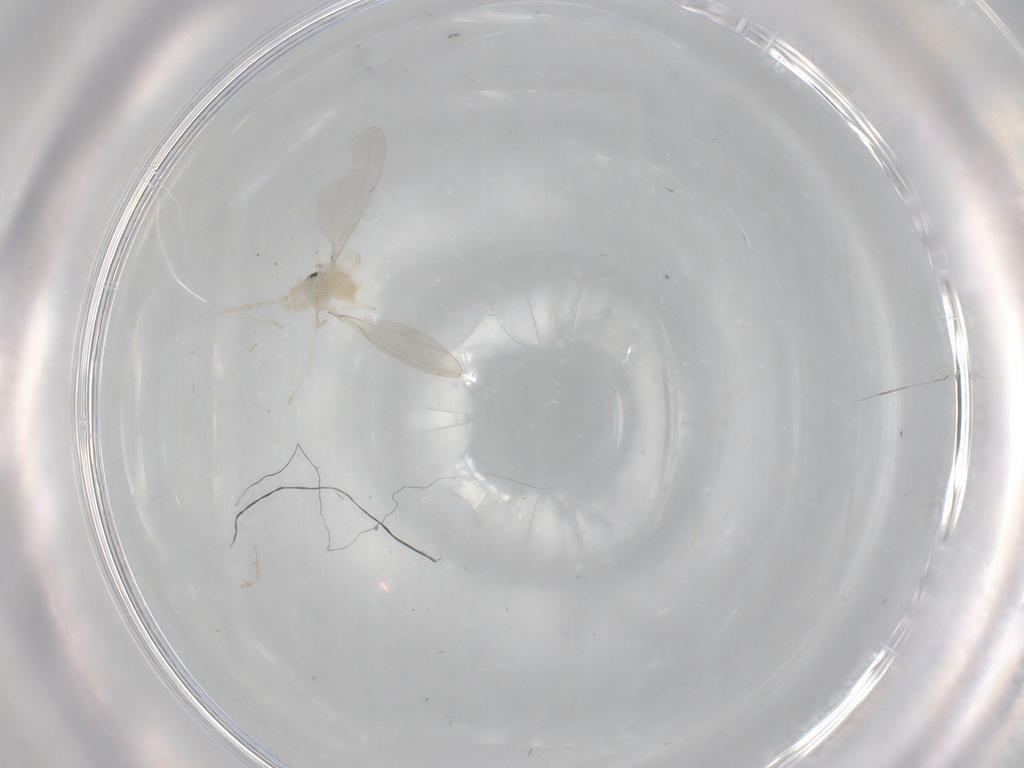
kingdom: Animalia
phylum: Arthropoda
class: Insecta
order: Diptera
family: Cecidomyiidae
